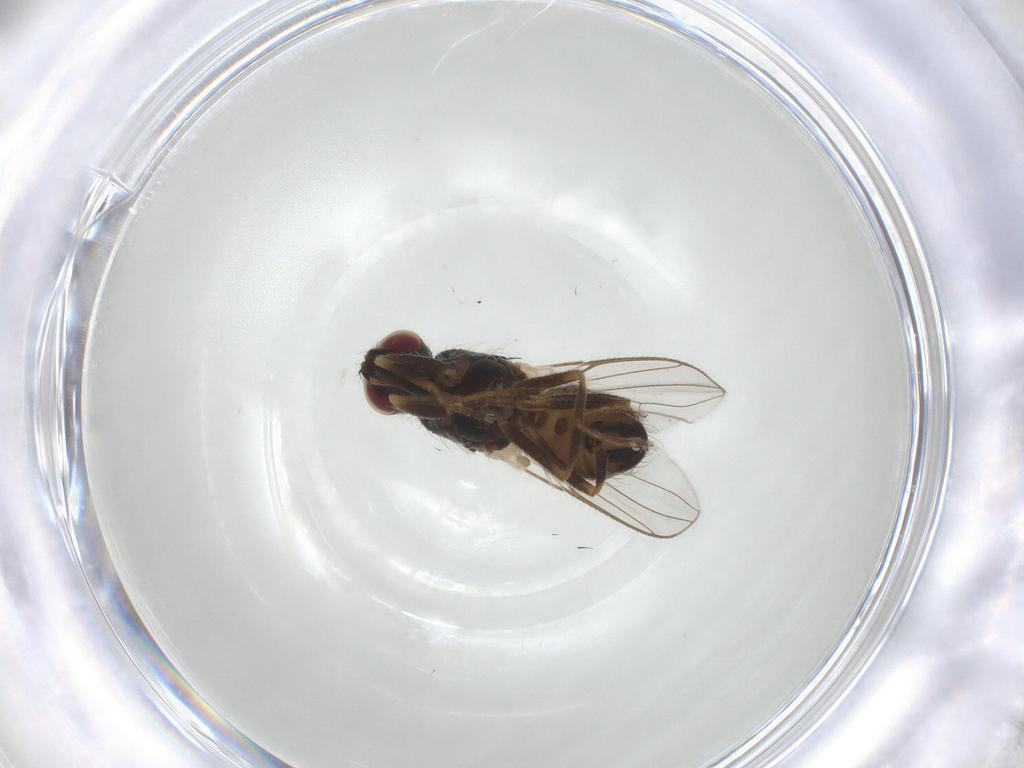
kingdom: Animalia
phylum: Arthropoda
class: Insecta
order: Diptera
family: Muscidae
